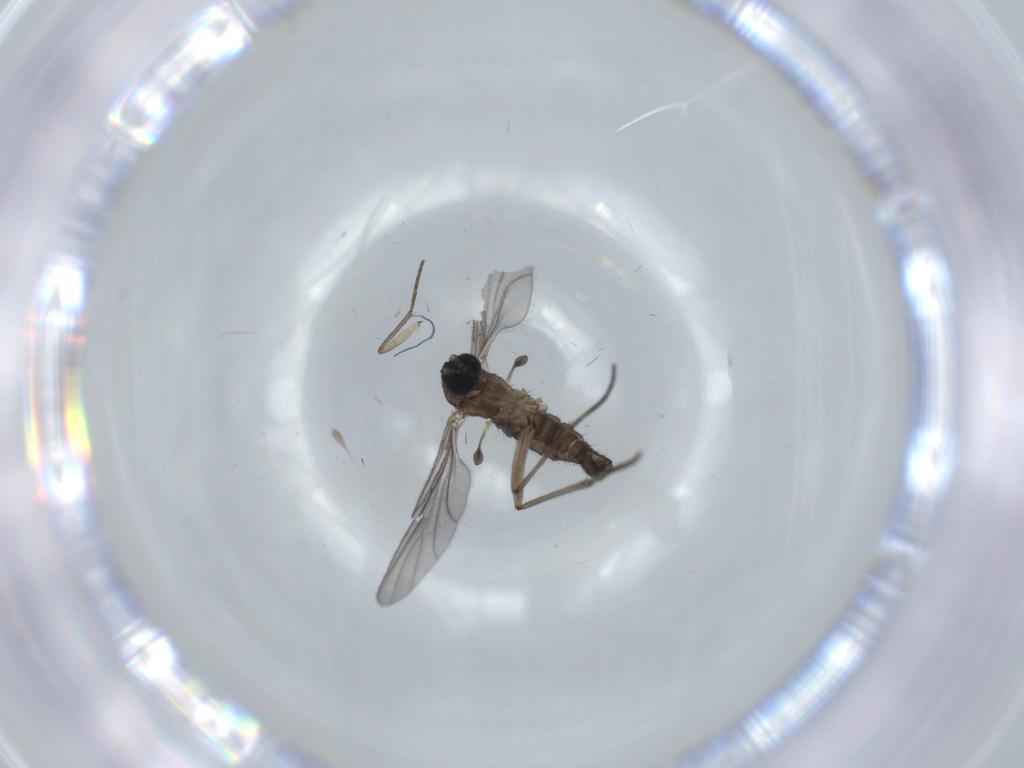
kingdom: Animalia
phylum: Arthropoda
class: Insecta
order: Diptera
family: Sciaridae
